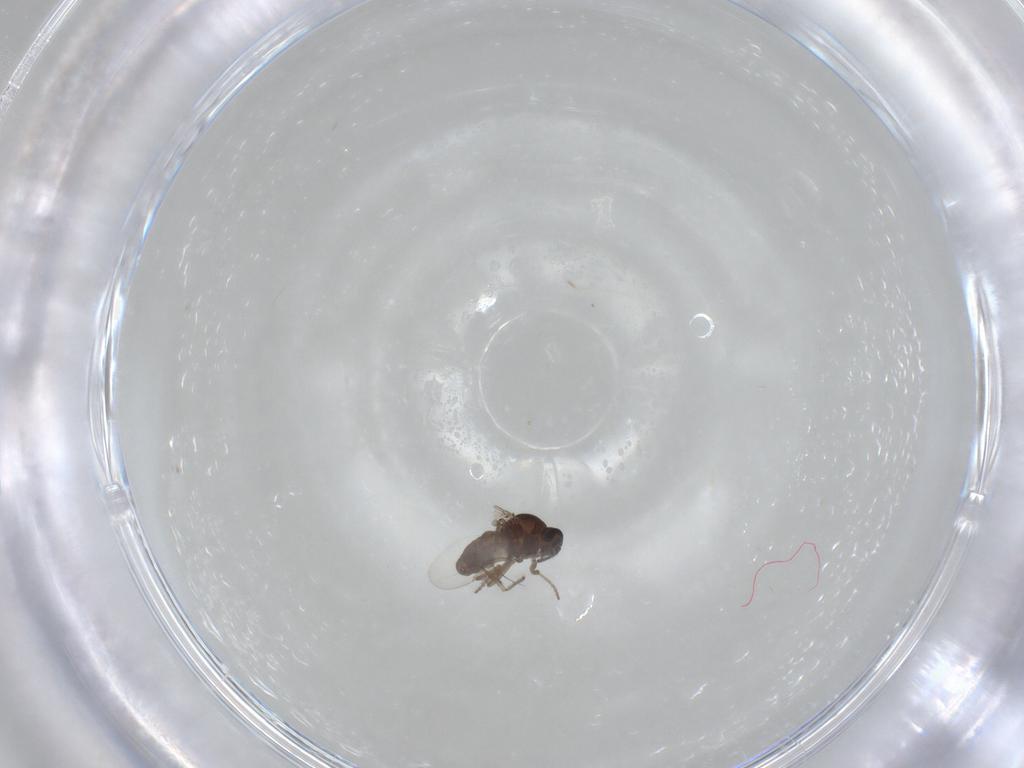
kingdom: Animalia
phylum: Arthropoda
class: Insecta
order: Diptera
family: Ceratopogonidae
